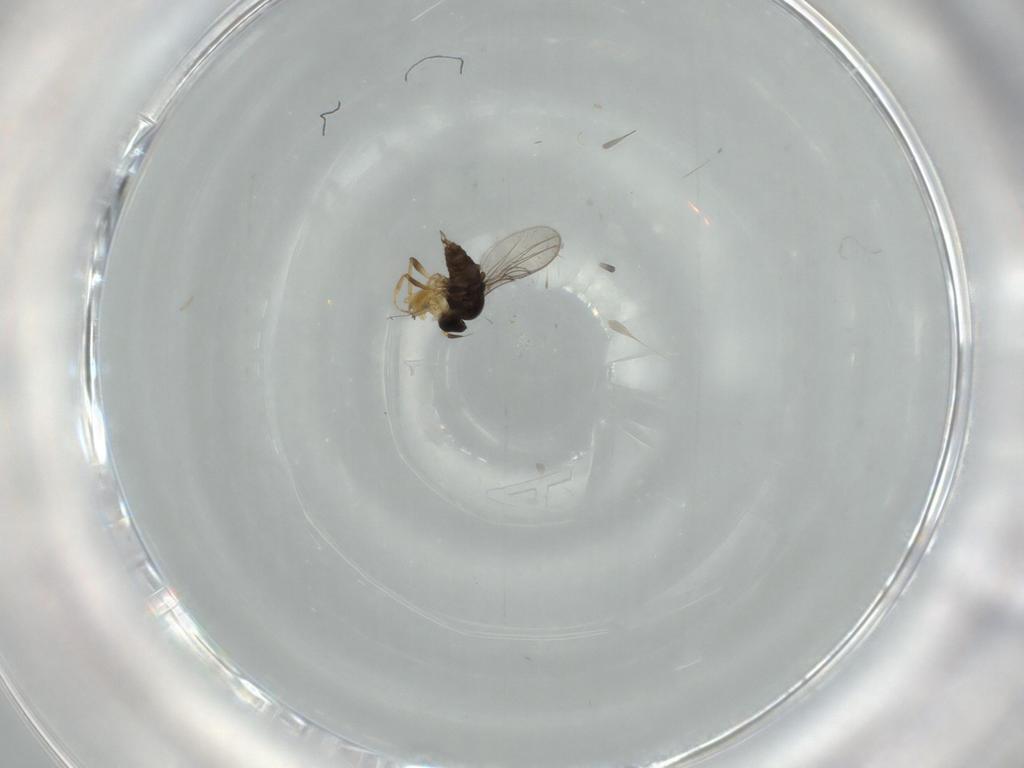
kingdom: Animalia
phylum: Arthropoda
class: Insecta
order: Diptera
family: Hybotidae
